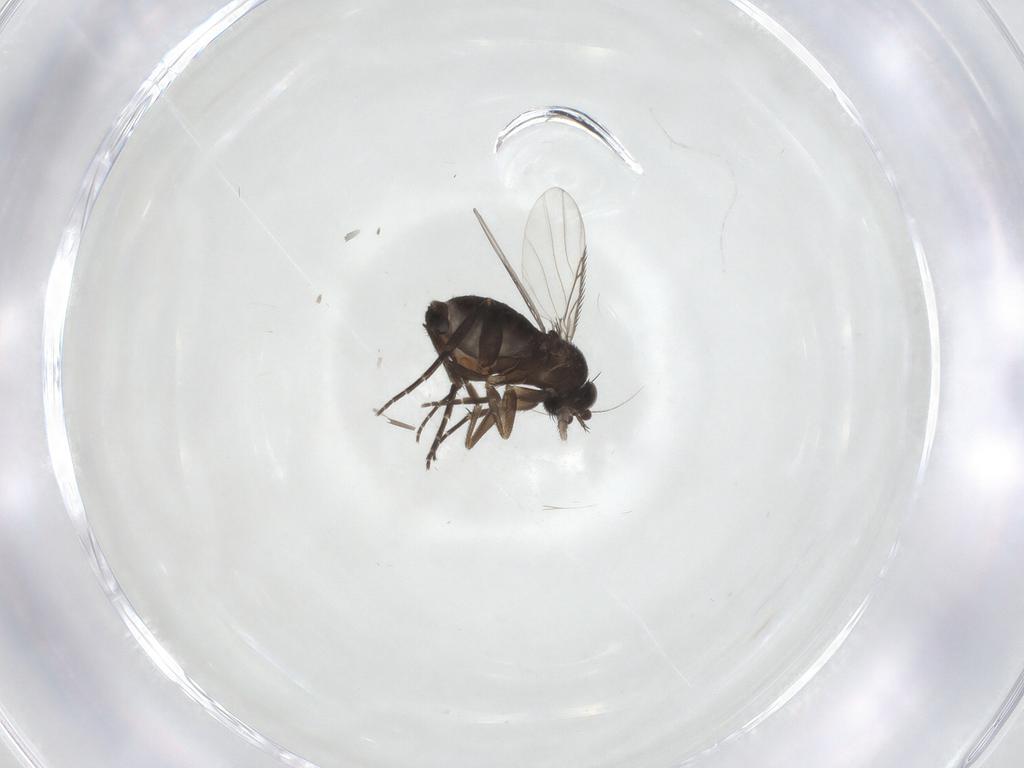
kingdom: Animalia
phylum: Arthropoda
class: Insecta
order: Diptera
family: Phoridae
